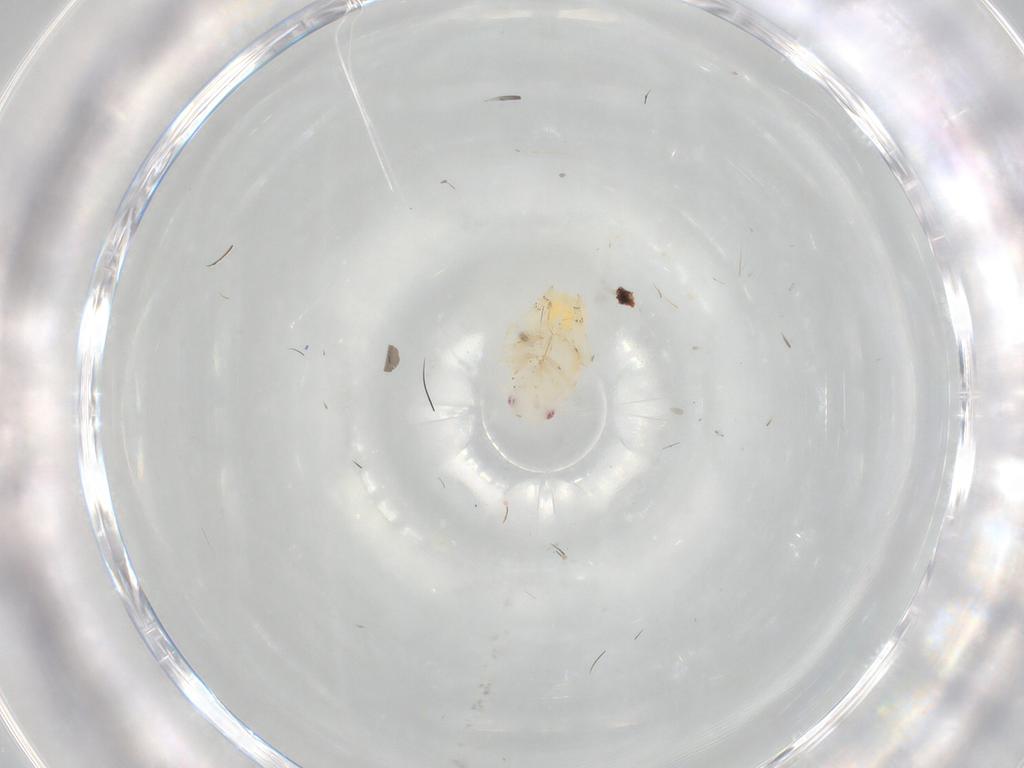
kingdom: Animalia
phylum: Arthropoda
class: Insecta
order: Hemiptera
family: Flatidae
